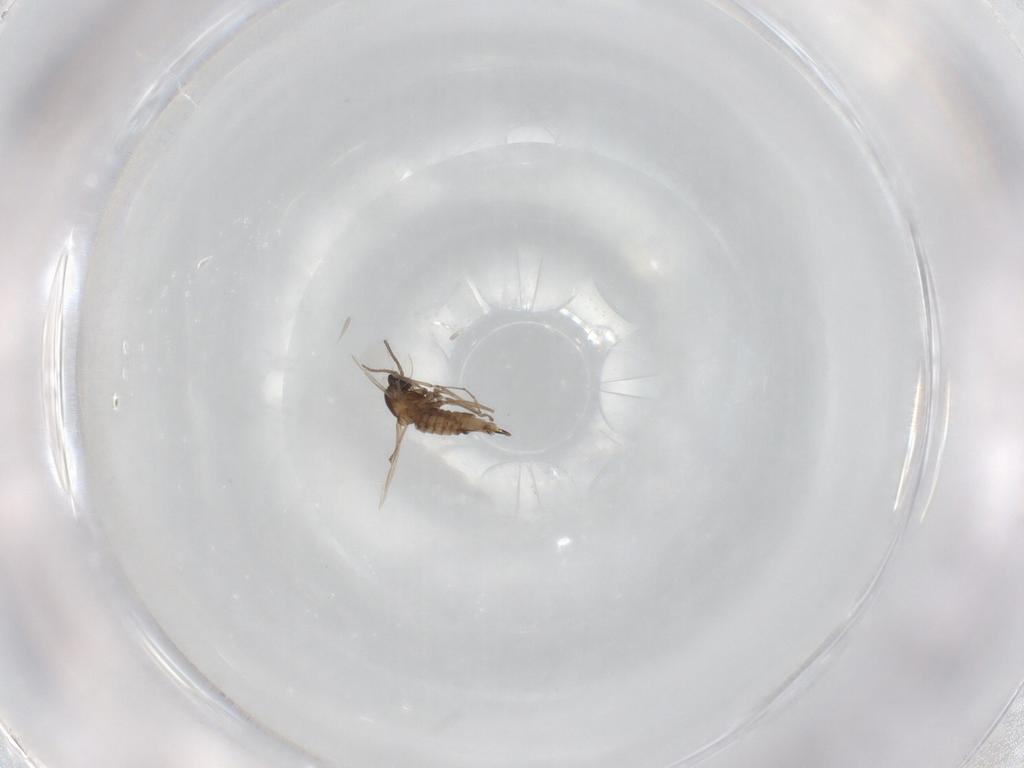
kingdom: Animalia
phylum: Arthropoda
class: Insecta
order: Diptera
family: Cecidomyiidae
